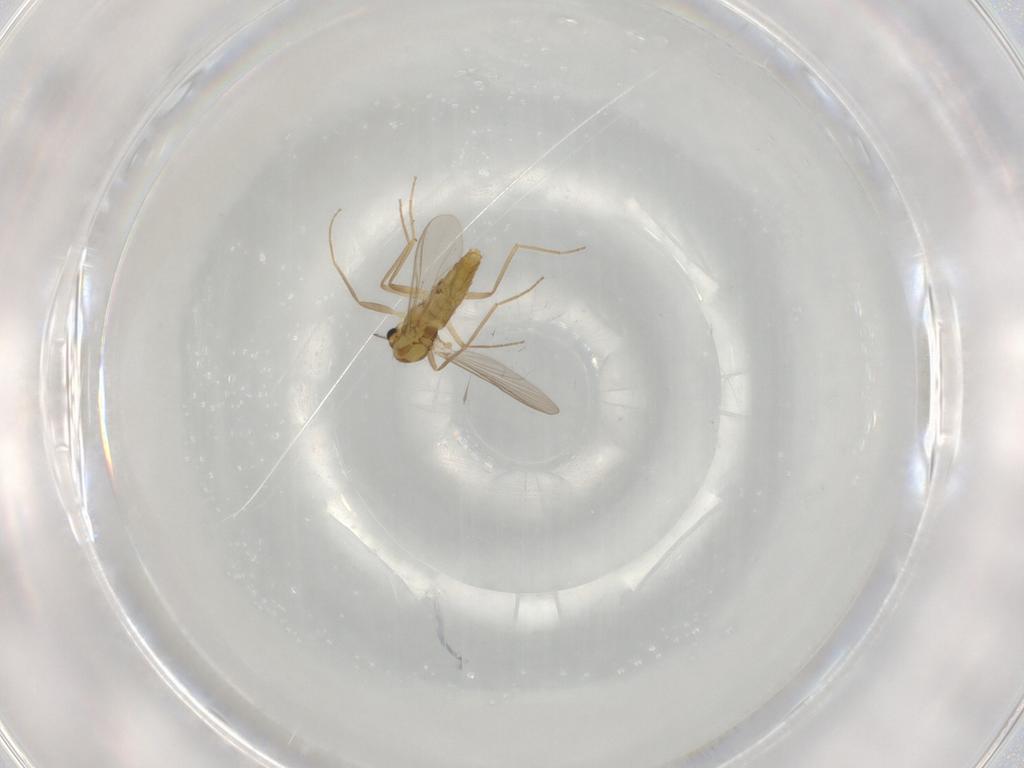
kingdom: Animalia
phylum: Arthropoda
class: Insecta
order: Diptera
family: Chironomidae
